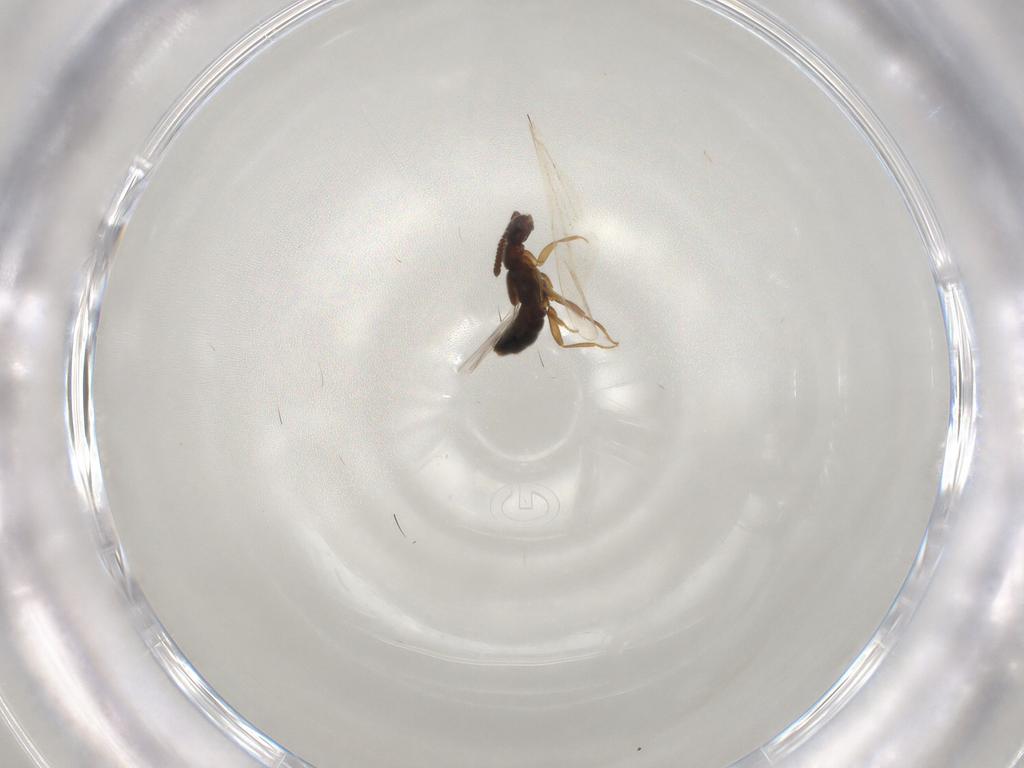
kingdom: Animalia
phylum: Arthropoda
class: Insecta
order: Coleoptera
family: Staphylinidae
